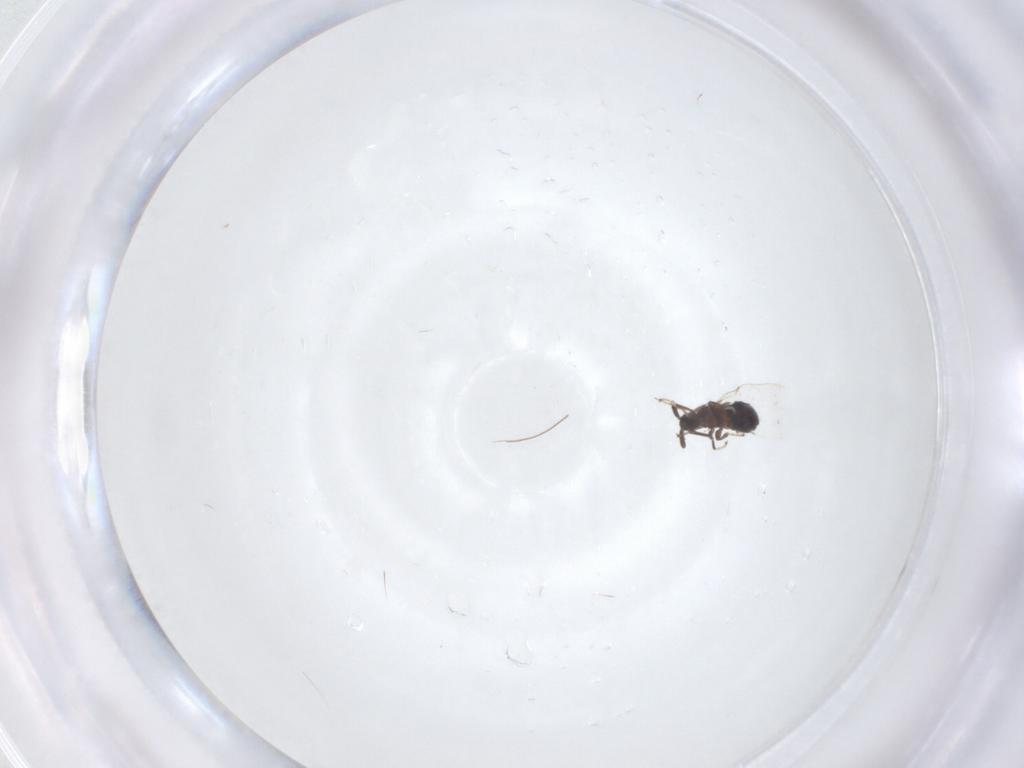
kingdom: Animalia
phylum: Arthropoda
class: Insecta
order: Diptera
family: Scatopsidae
